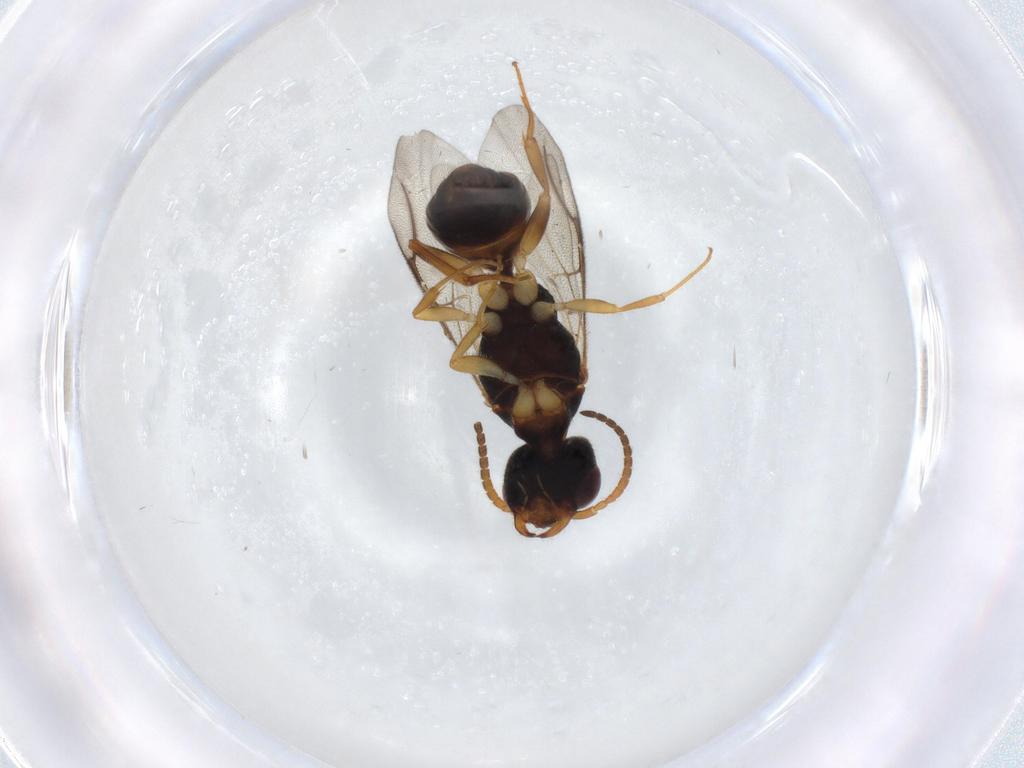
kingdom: Animalia
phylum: Arthropoda
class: Insecta
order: Hymenoptera
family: Bethylidae
